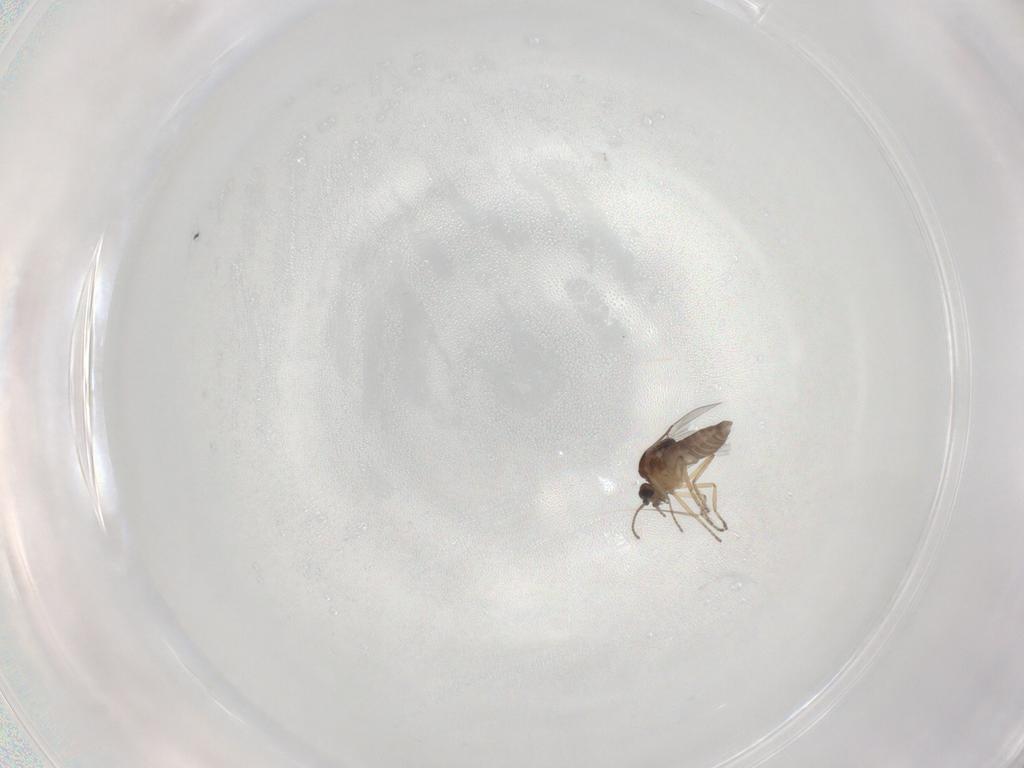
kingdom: Animalia
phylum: Arthropoda
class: Insecta
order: Diptera
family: Ceratopogonidae
